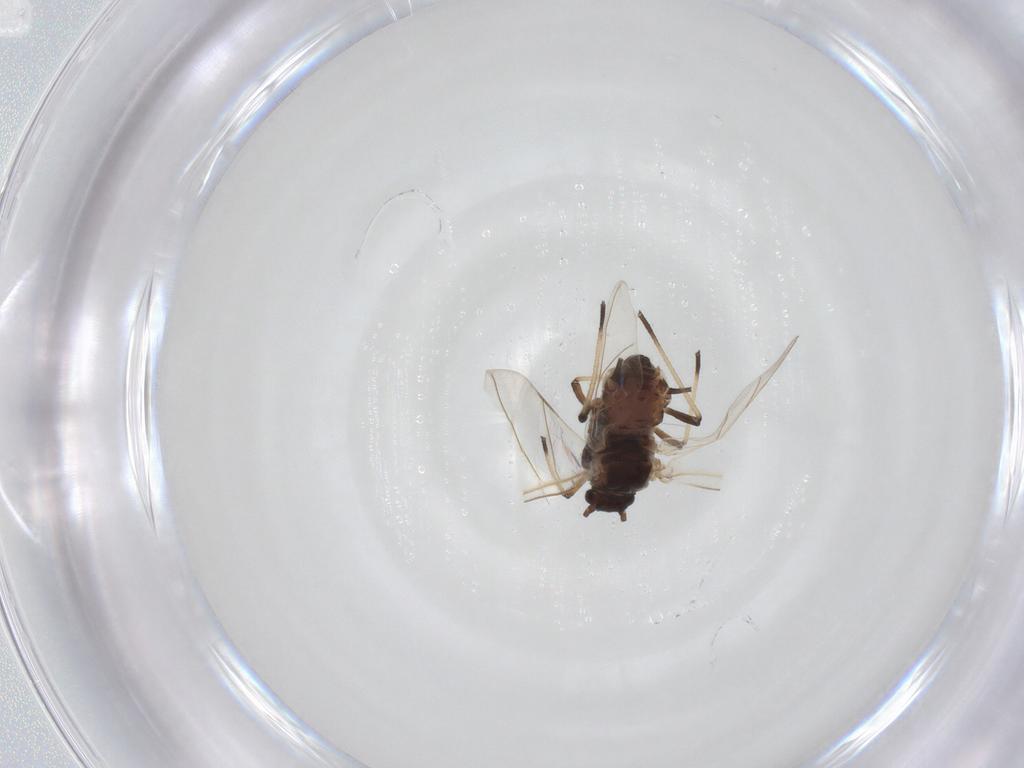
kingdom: Animalia
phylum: Arthropoda
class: Insecta
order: Hemiptera
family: Aphididae
